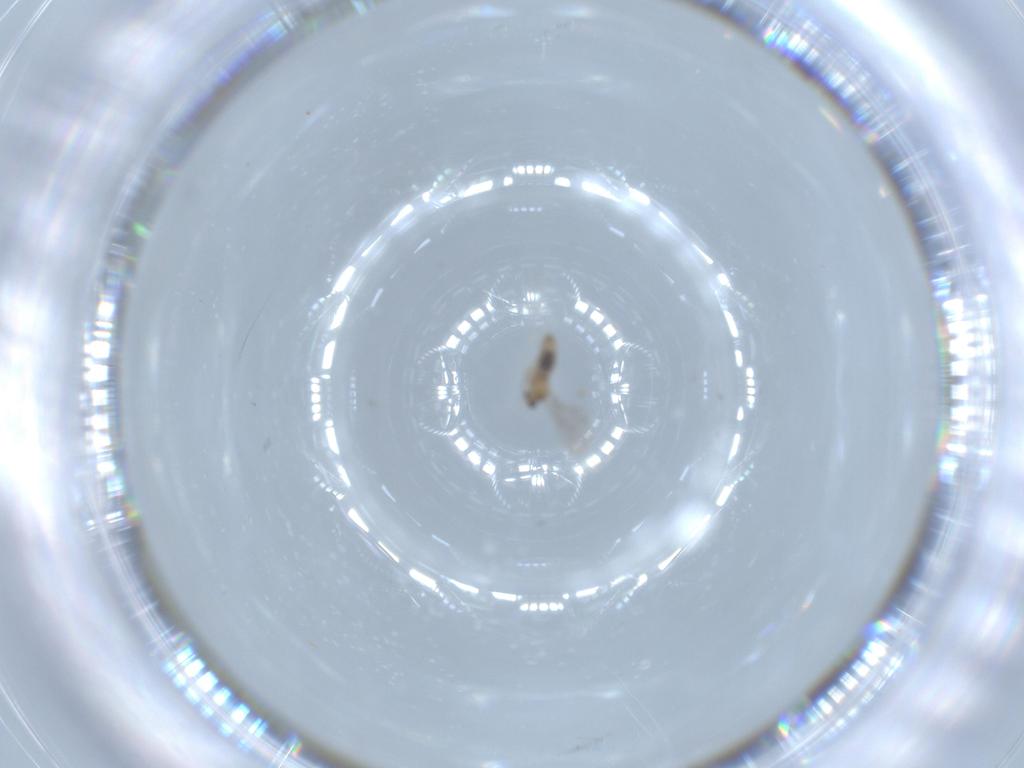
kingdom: Animalia
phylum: Arthropoda
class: Insecta
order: Diptera
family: Cecidomyiidae
